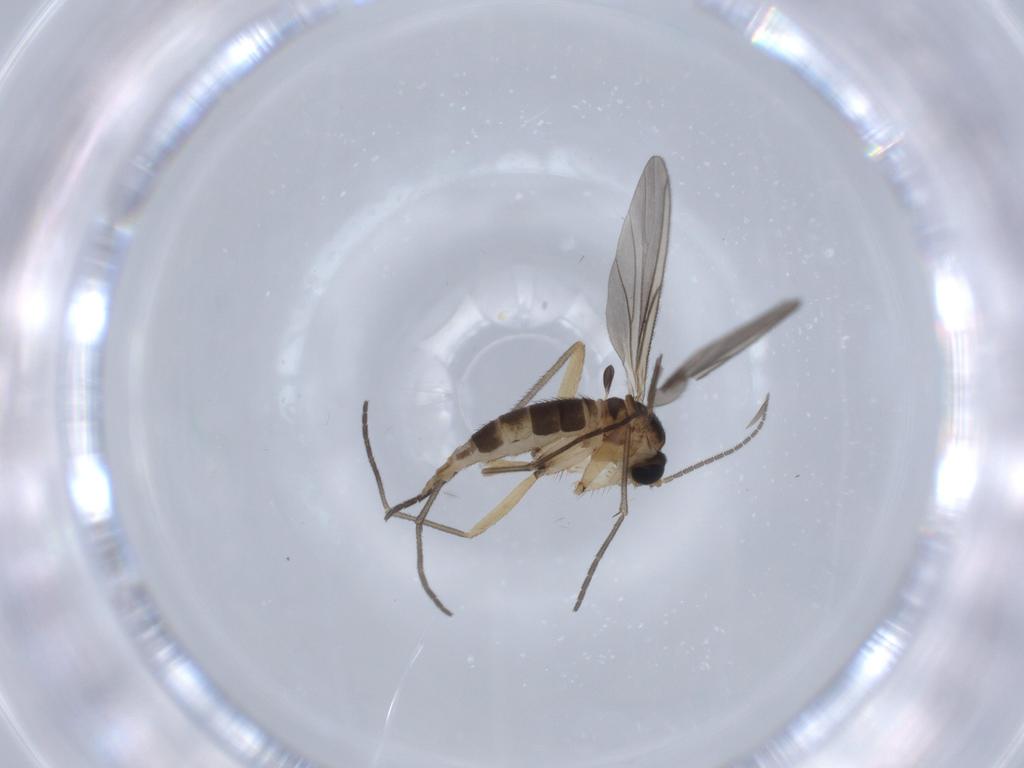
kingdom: Animalia
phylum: Arthropoda
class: Insecta
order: Diptera
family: Sciaridae
